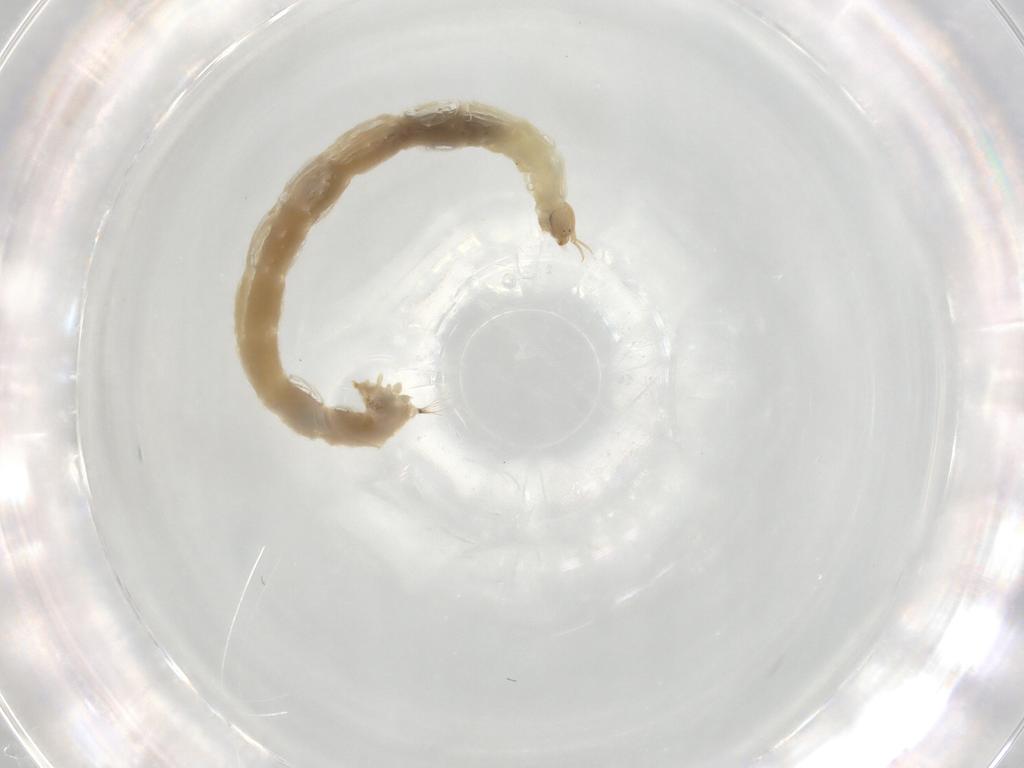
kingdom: Animalia
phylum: Arthropoda
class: Insecta
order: Diptera
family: Chironomidae
